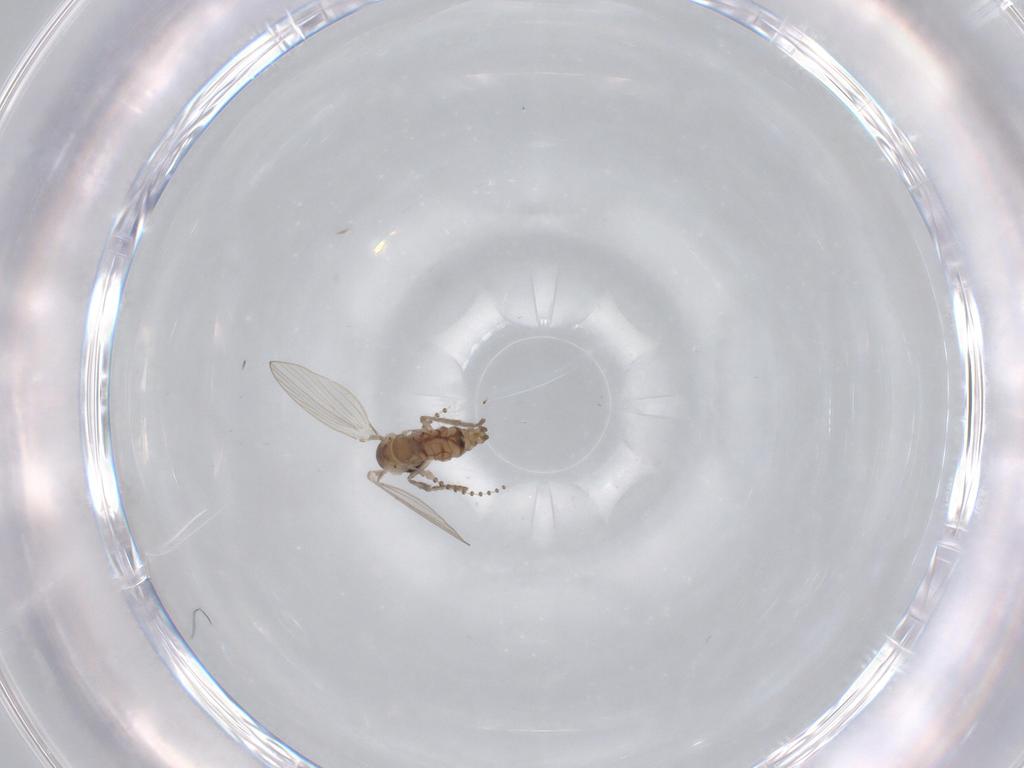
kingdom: Animalia
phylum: Arthropoda
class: Insecta
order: Diptera
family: Psychodidae
